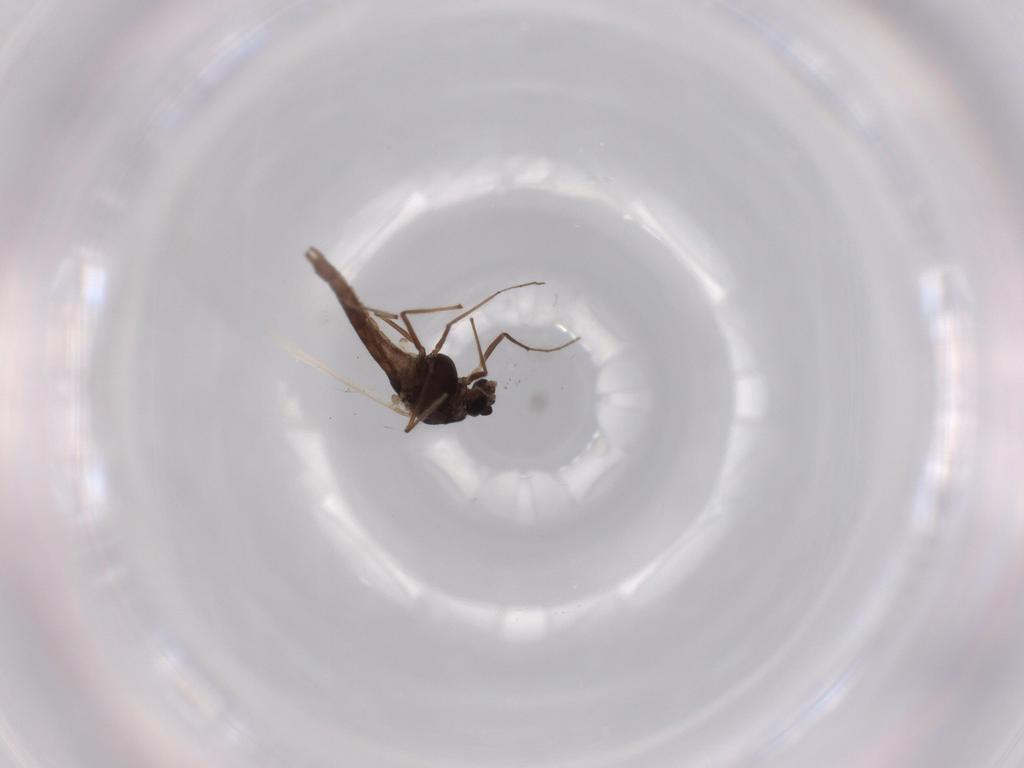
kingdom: Animalia
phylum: Arthropoda
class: Insecta
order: Diptera
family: Chironomidae
